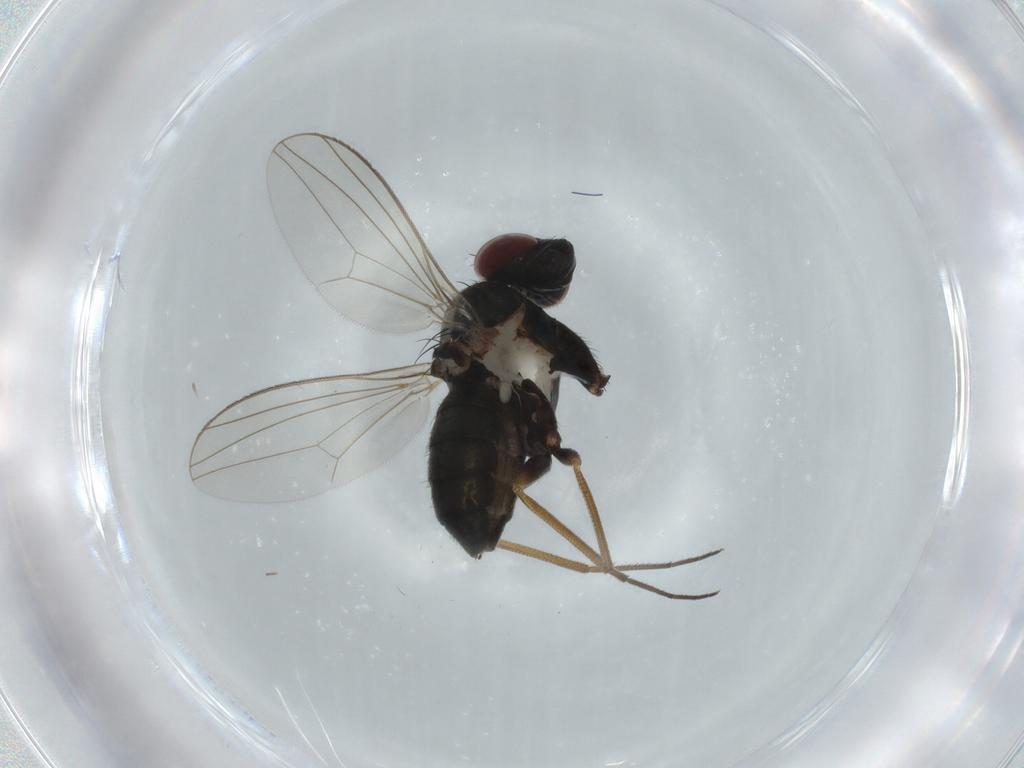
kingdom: Animalia
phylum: Arthropoda
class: Insecta
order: Diptera
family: Dolichopodidae
